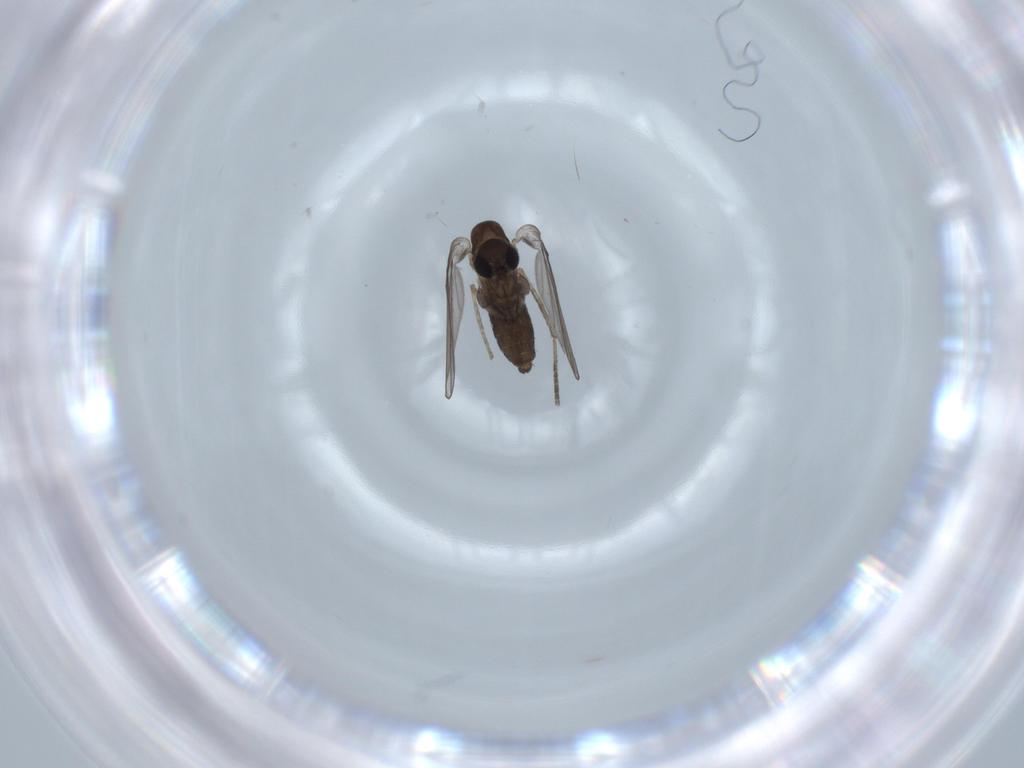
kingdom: Animalia
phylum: Arthropoda
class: Insecta
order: Diptera
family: Psychodidae
